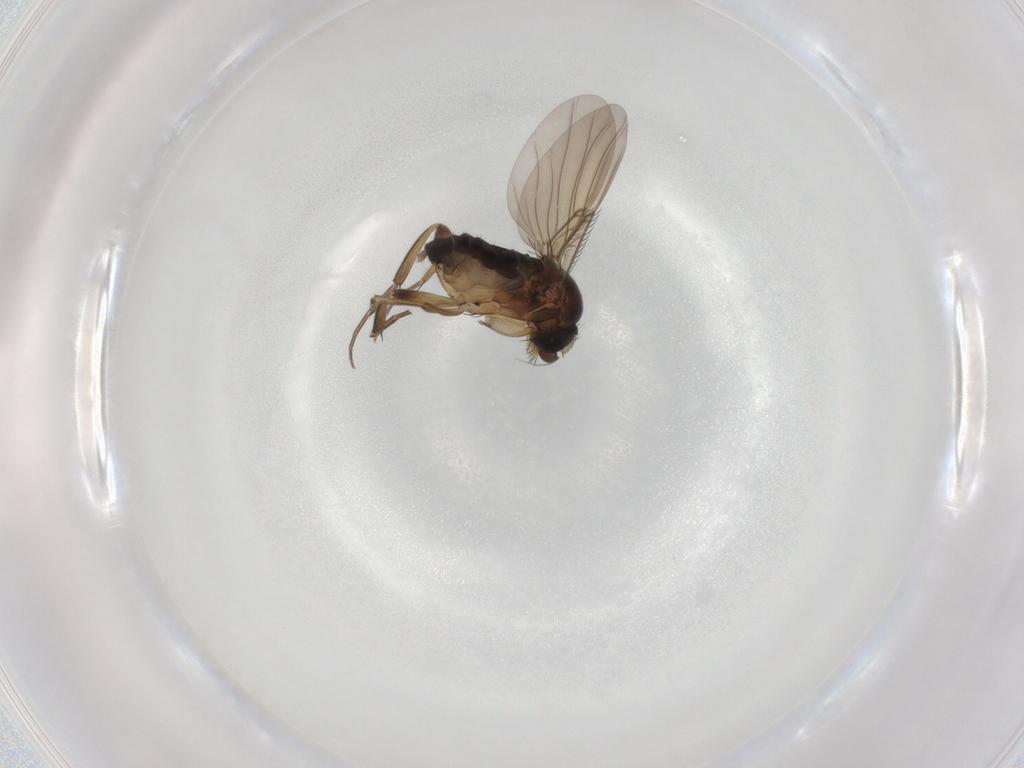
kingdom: Animalia
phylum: Arthropoda
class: Insecta
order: Diptera
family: Phoridae
